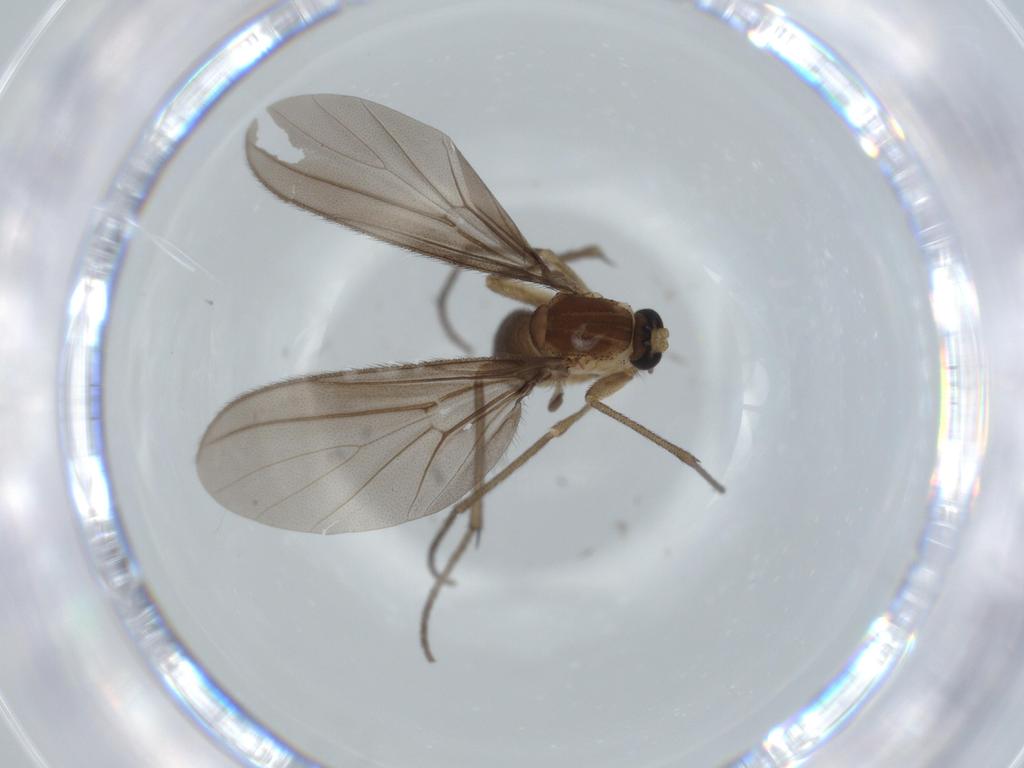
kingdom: Animalia
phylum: Arthropoda
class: Insecta
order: Diptera
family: Diadocidiidae
